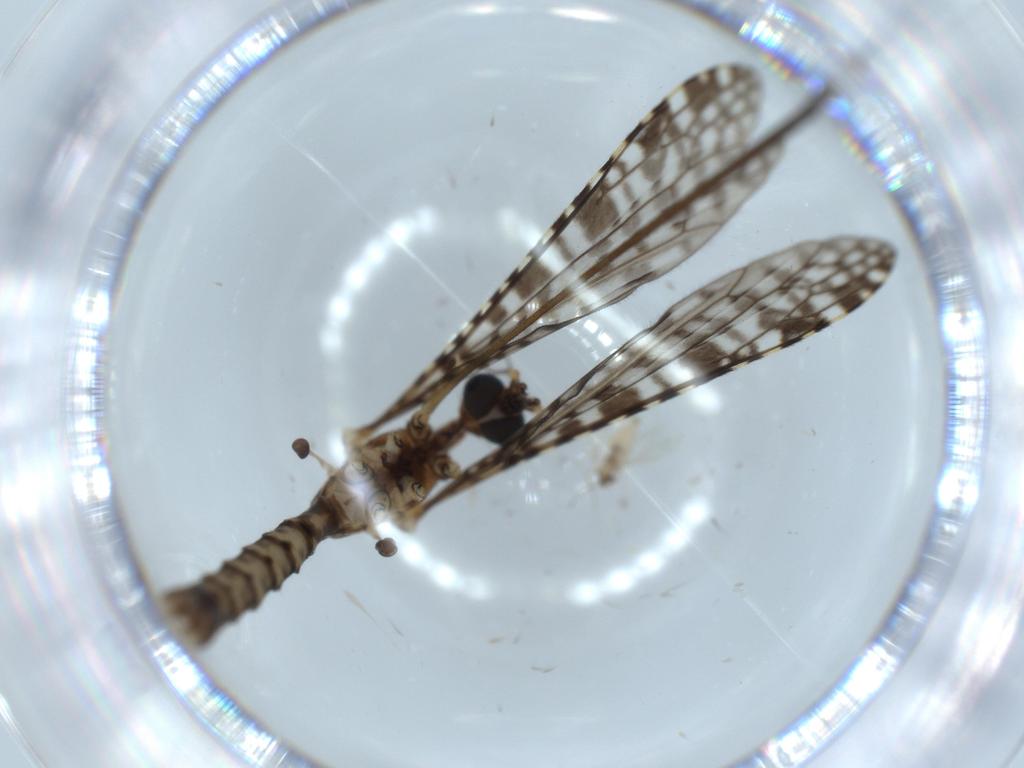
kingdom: Animalia
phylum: Arthropoda
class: Insecta
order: Diptera
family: Limoniidae
